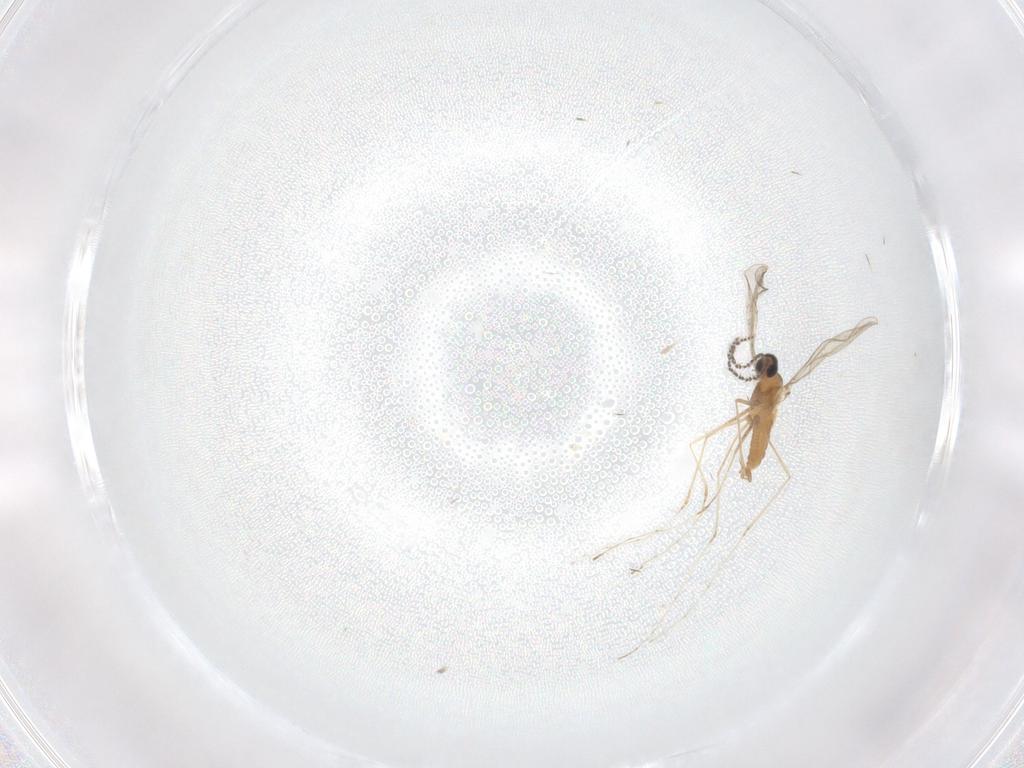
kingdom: Animalia
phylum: Arthropoda
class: Insecta
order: Diptera
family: Cecidomyiidae
